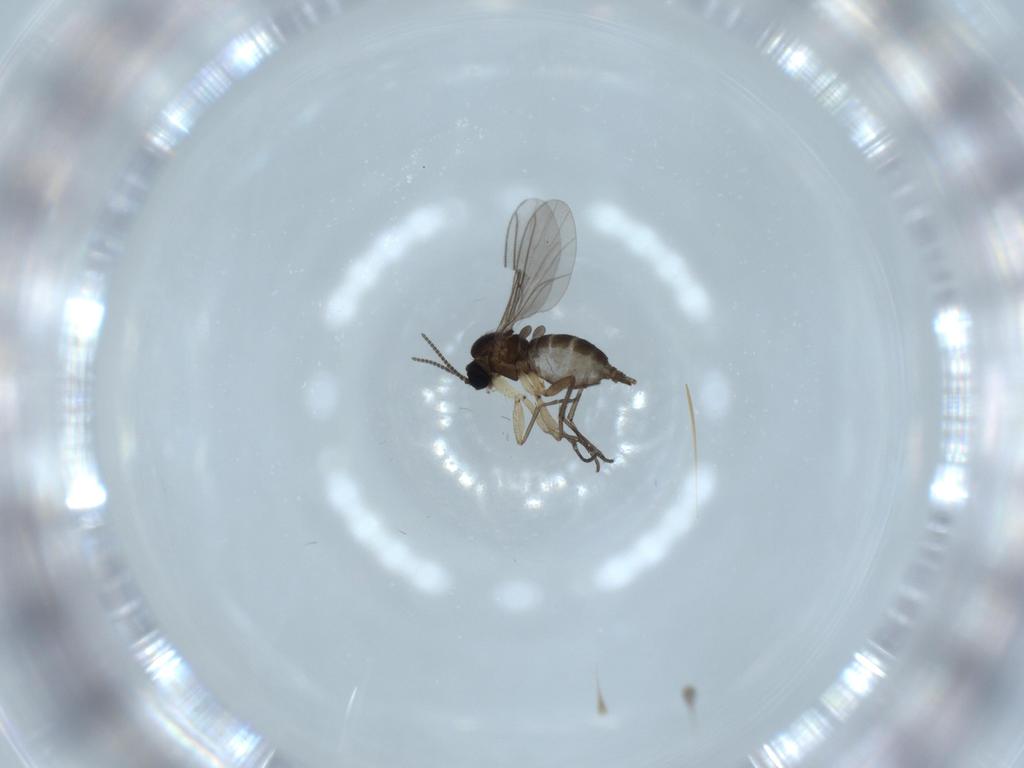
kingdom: Animalia
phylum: Arthropoda
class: Insecta
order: Diptera
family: Sciaridae
